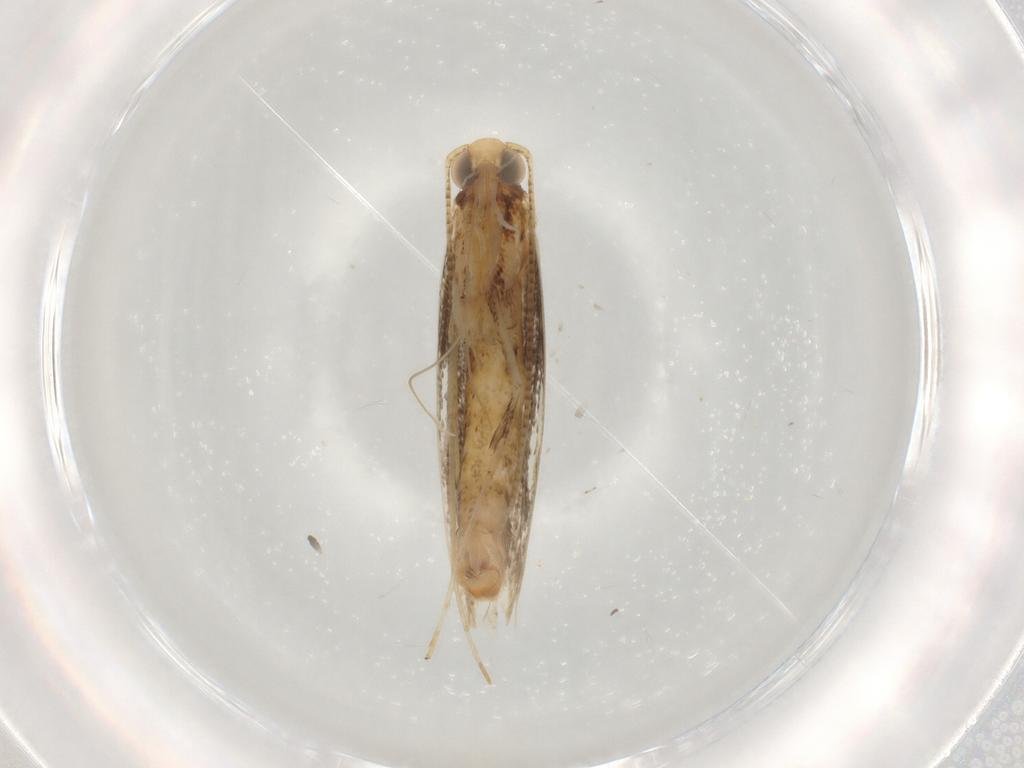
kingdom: Animalia
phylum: Arthropoda
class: Insecta
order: Lepidoptera
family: Gracillariidae
